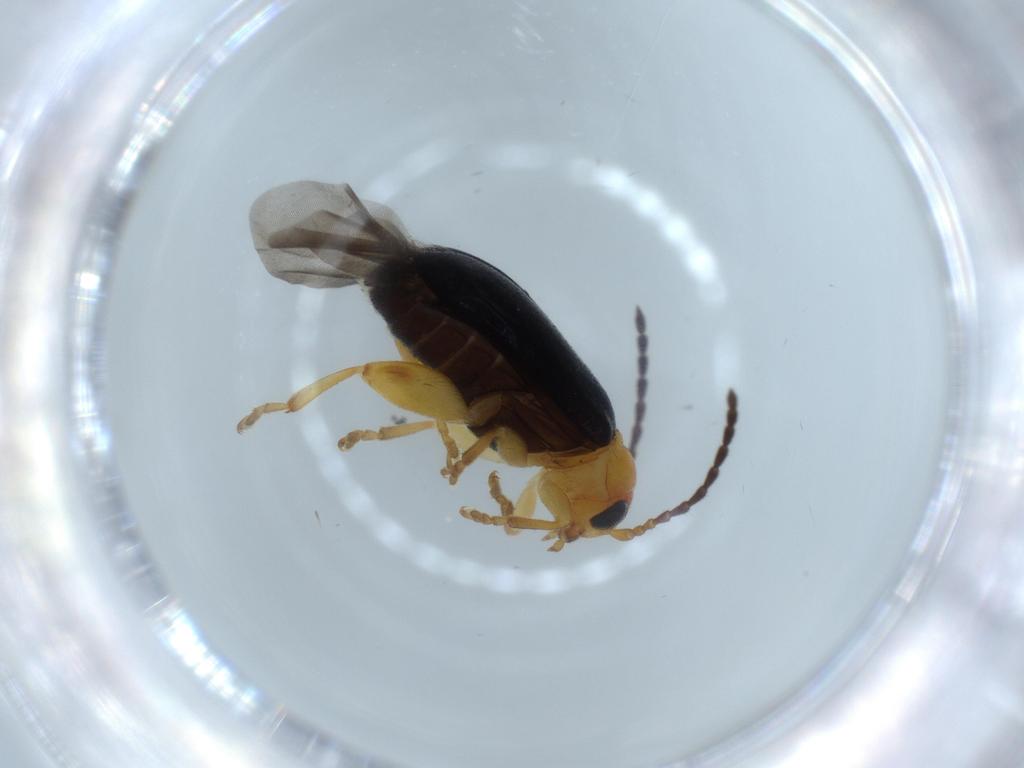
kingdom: Animalia
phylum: Arthropoda
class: Insecta
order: Coleoptera
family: Chrysomelidae
